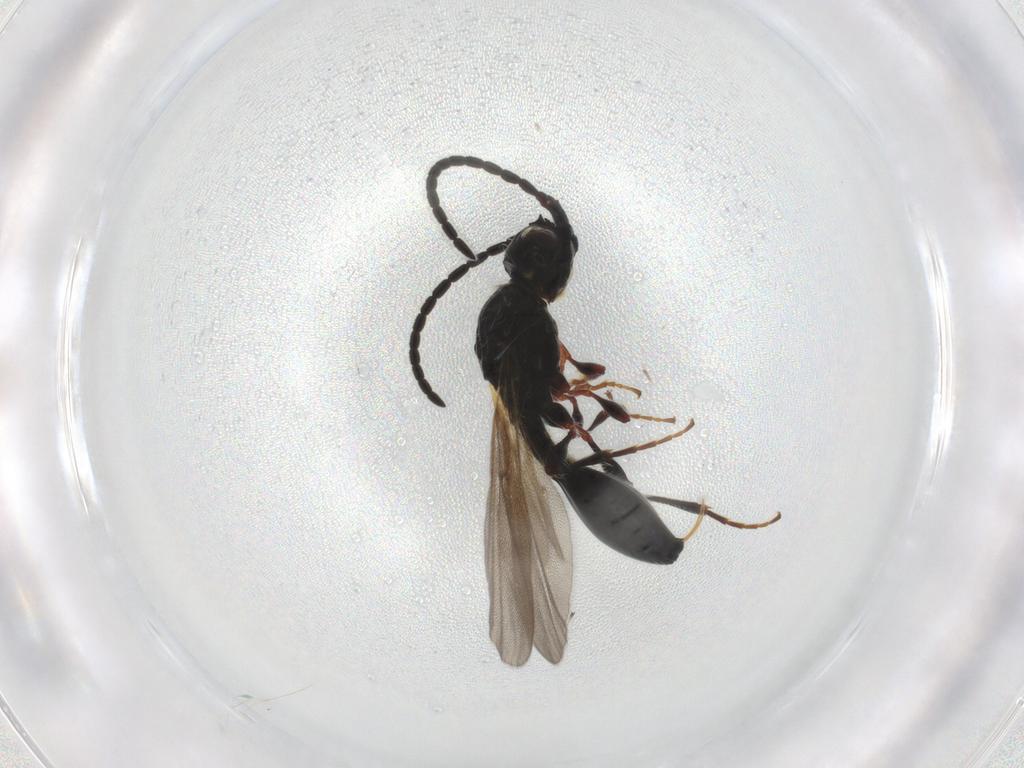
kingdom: Animalia
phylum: Arthropoda
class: Insecta
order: Hymenoptera
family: Diapriidae
